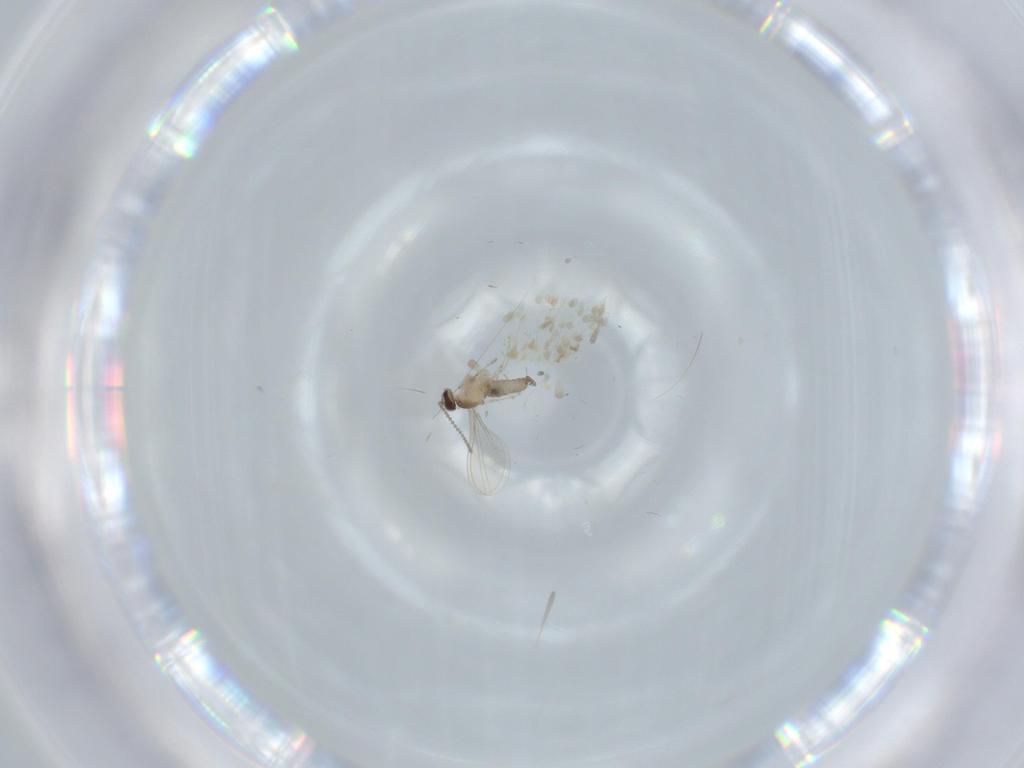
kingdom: Animalia
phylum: Arthropoda
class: Insecta
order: Diptera
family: Cecidomyiidae
